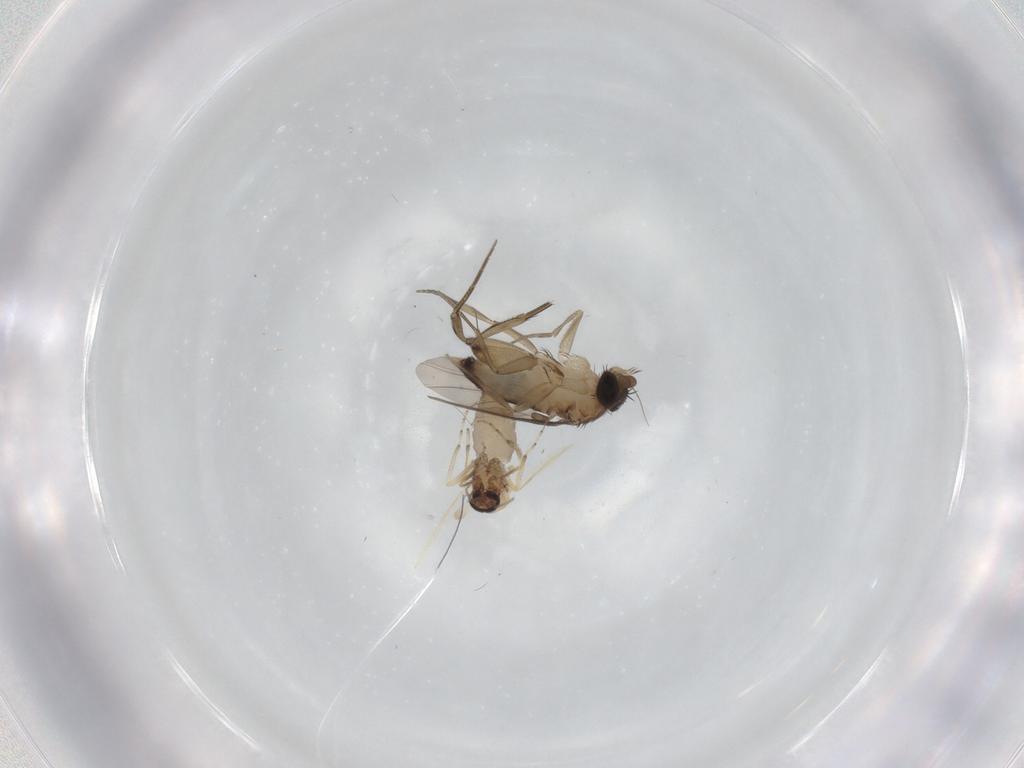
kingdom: Animalia
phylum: Arthropoda
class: Insecta
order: Diptera
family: Phoridae
